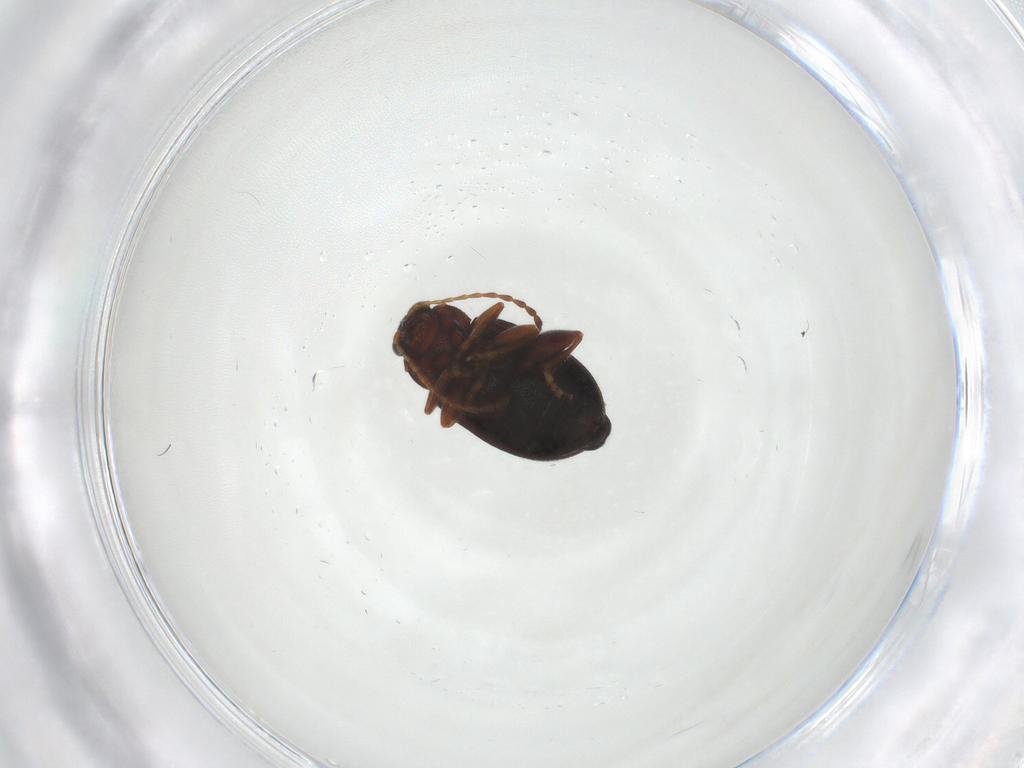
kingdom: Animalia
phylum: Arthropoda
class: Insecta
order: Coleoptera
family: Chrysomelidae
